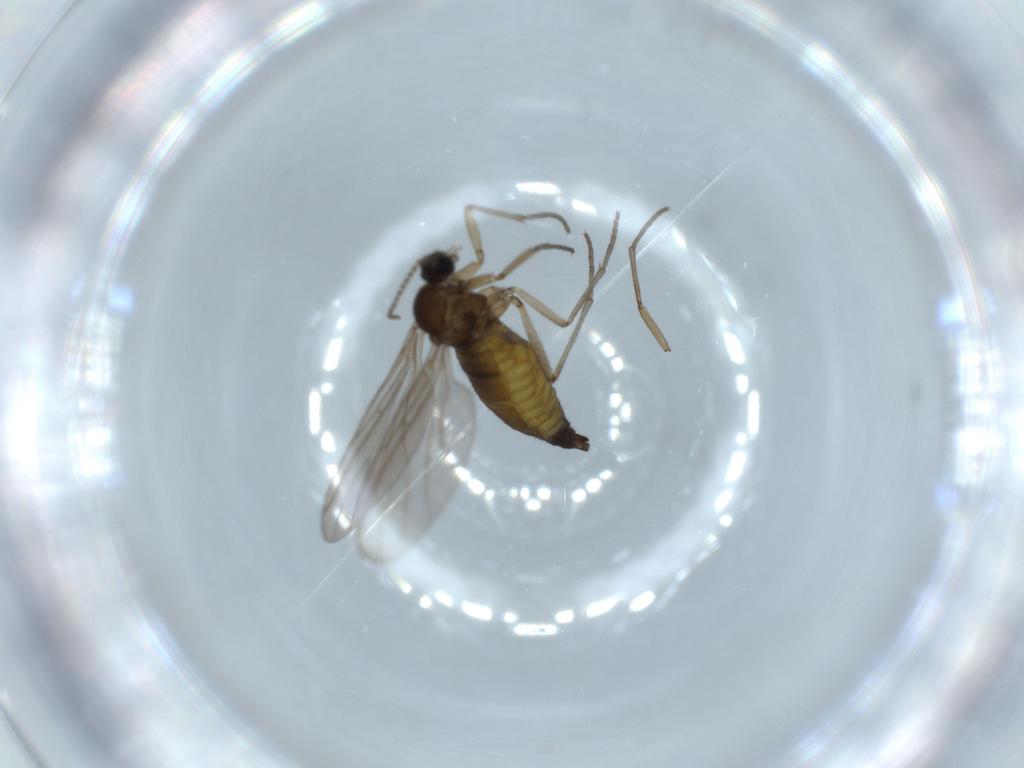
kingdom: Animalia
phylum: Arthropoda
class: Insecta
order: Diptera
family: Sciaridae
